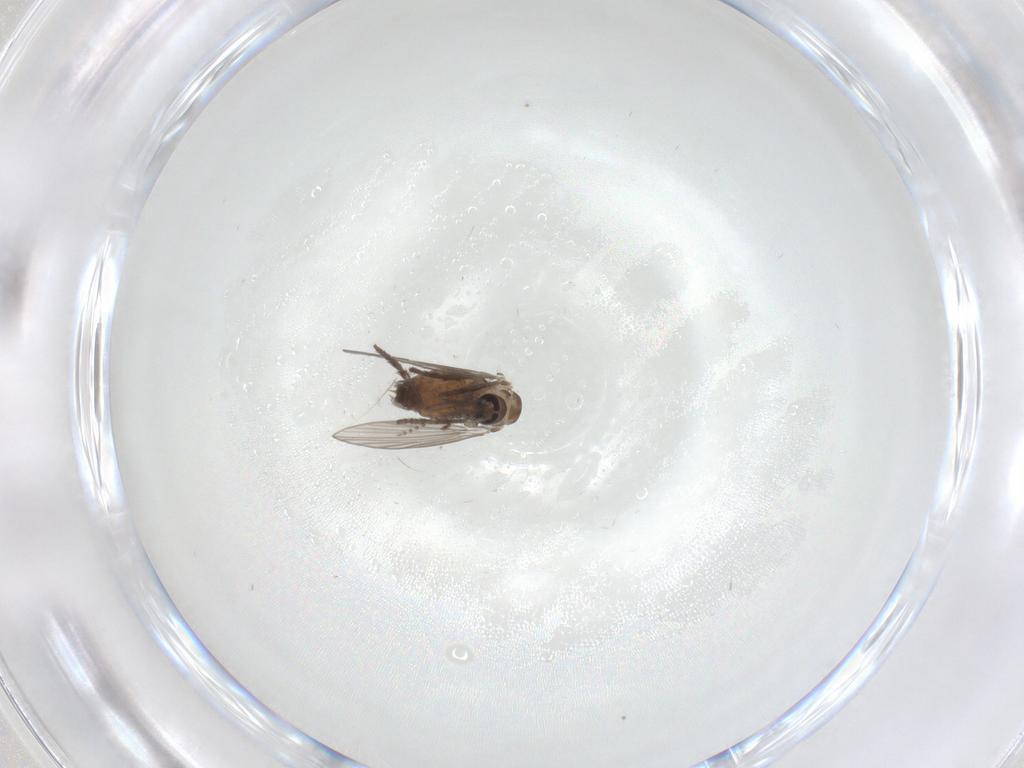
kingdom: Animalia
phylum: Arthropoda
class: Insecta
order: Diptera
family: Psychodidae
